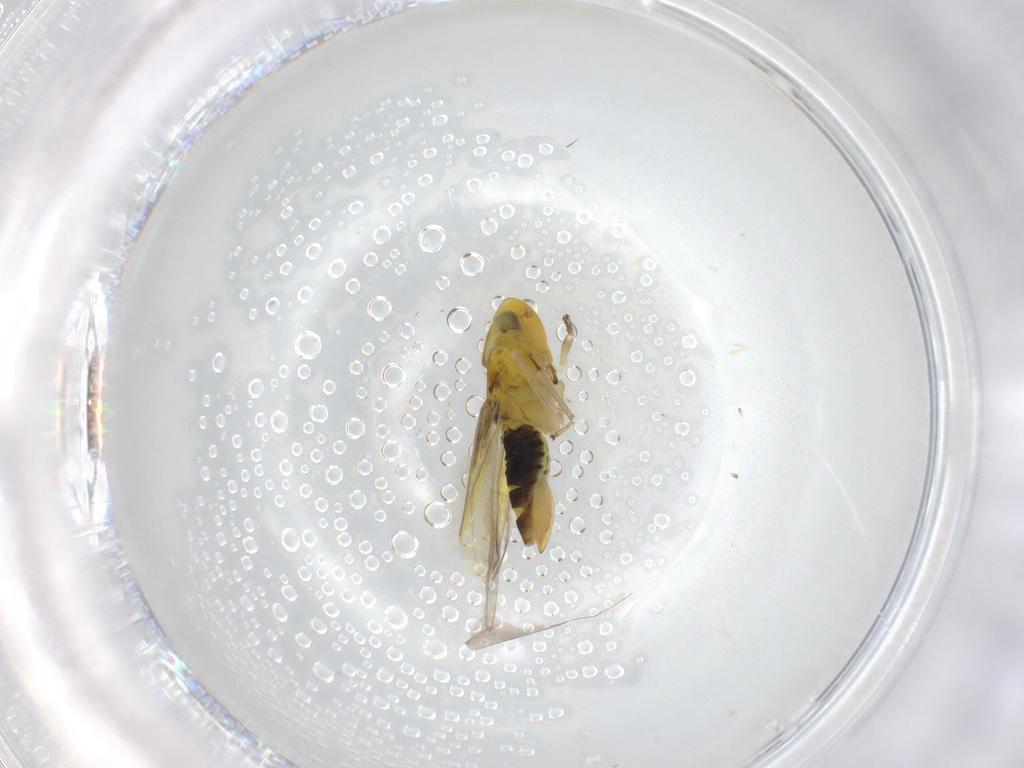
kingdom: Animalia
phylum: Arthropoda
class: Insecta
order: Hemiptera
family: Cicadellidae
